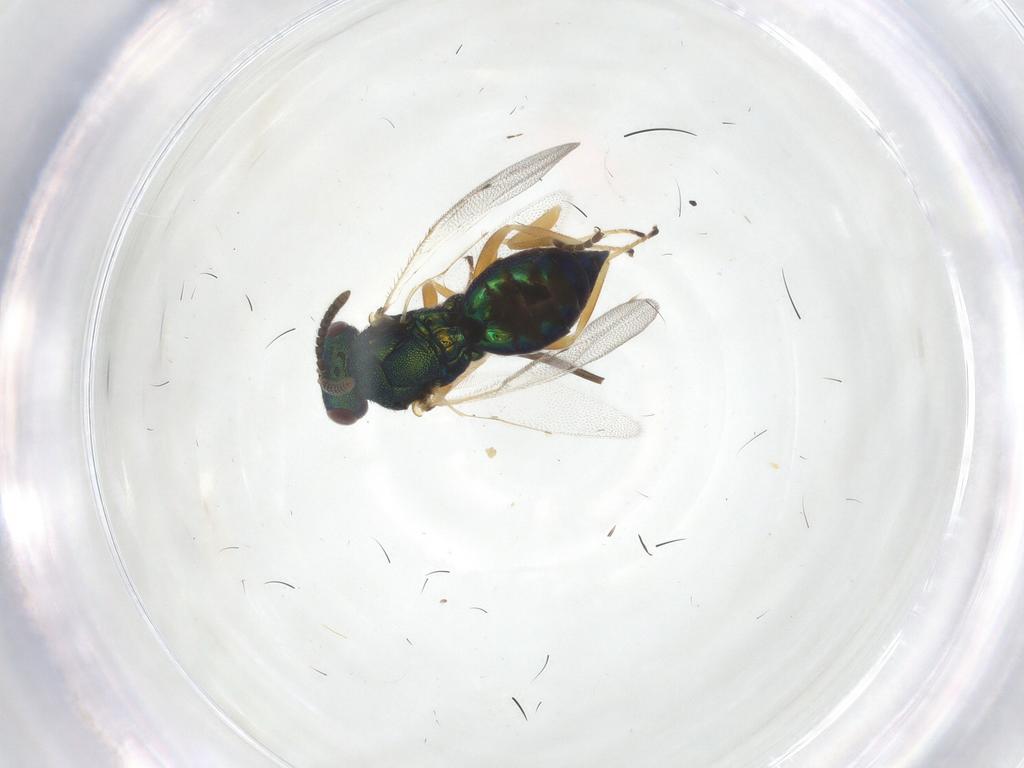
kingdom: Animalia
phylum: Arthropoda
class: Insecta
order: Hymenoptera
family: Pteromalidae
